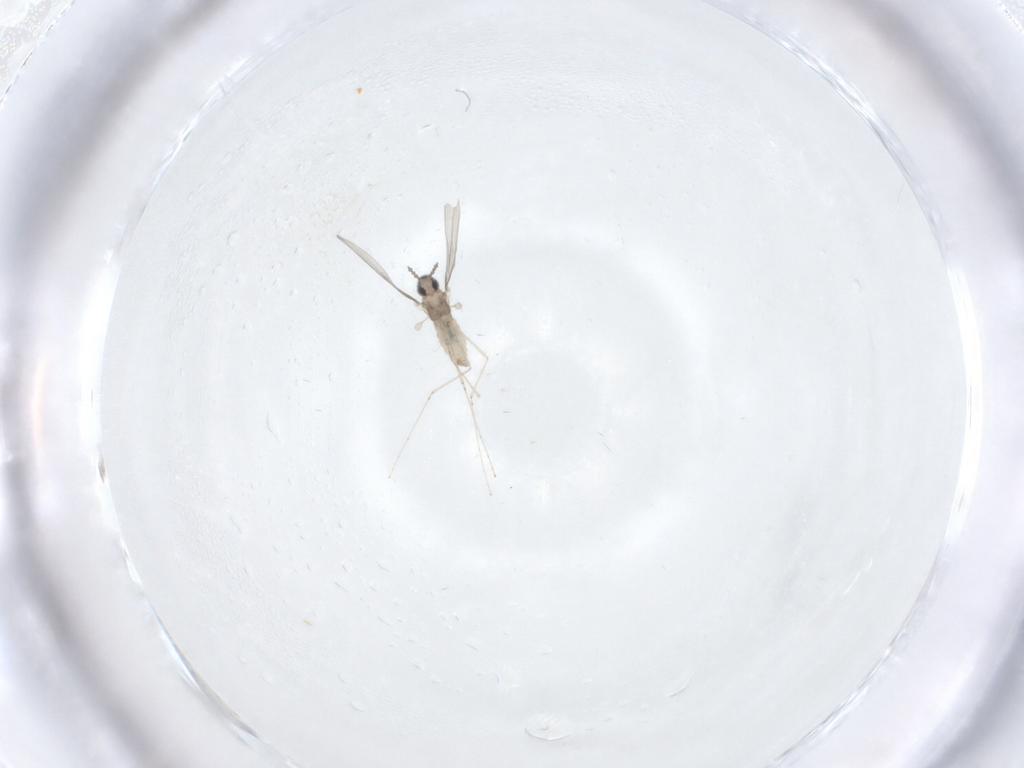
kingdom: Animalia
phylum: Arthropoda
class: Insecta
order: Diptera
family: Chironomidae
